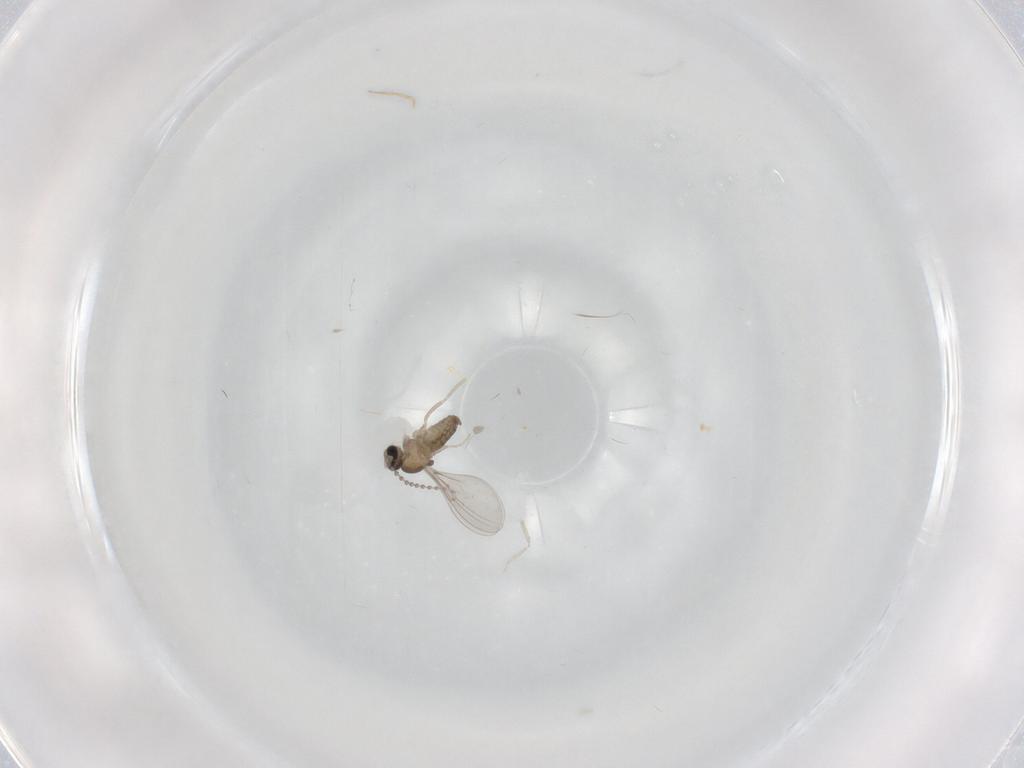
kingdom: Animalia
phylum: Arthropoda
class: Insecta
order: Diptera
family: Cecidomyiidae
